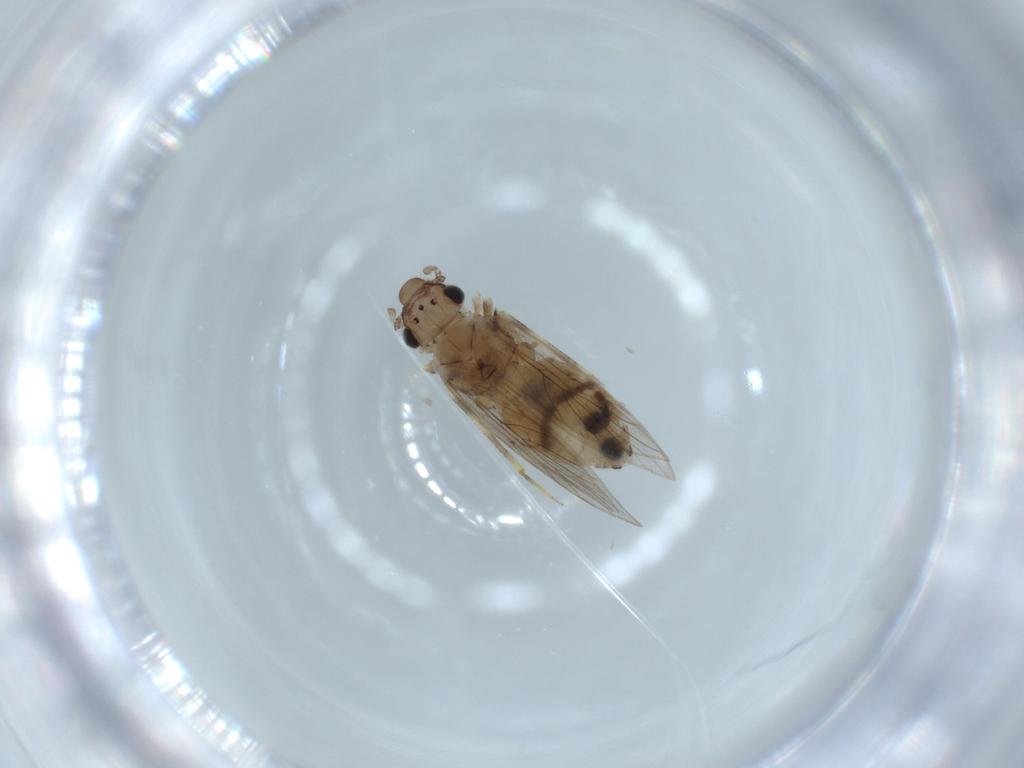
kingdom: Animalia
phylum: Arthropoda
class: Insecta
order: Psocodea
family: Lepidopsocidae
